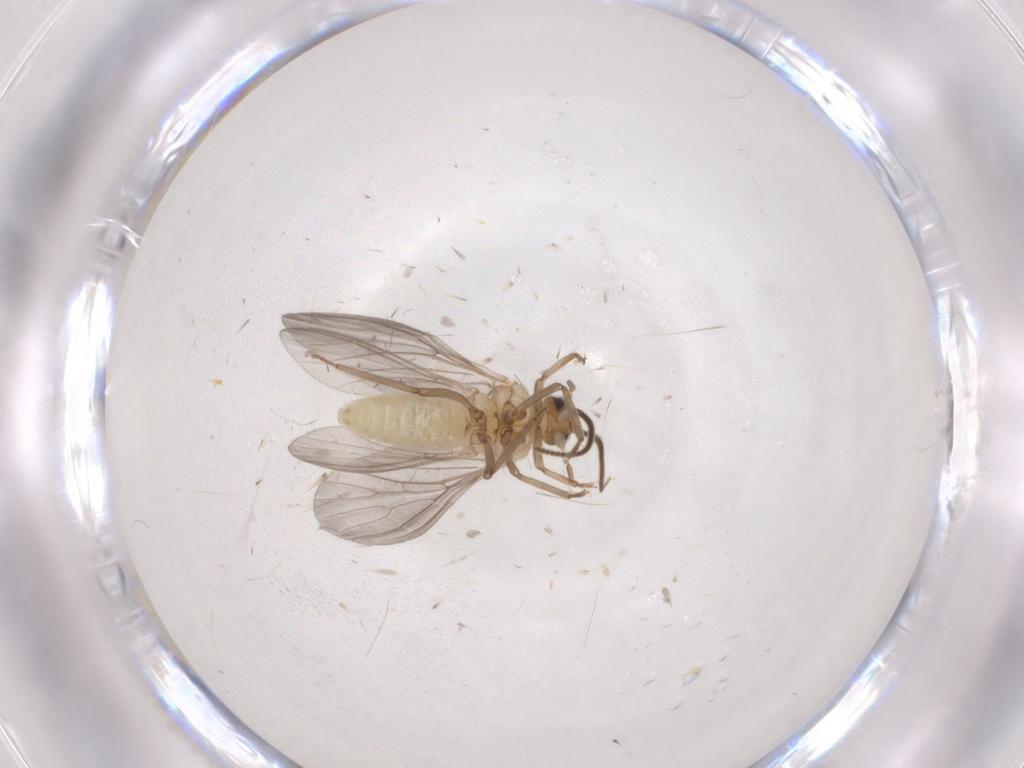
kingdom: Animalia
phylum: Arthropoda
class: Insecta
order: Neuroptera
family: Coniopterygidae
